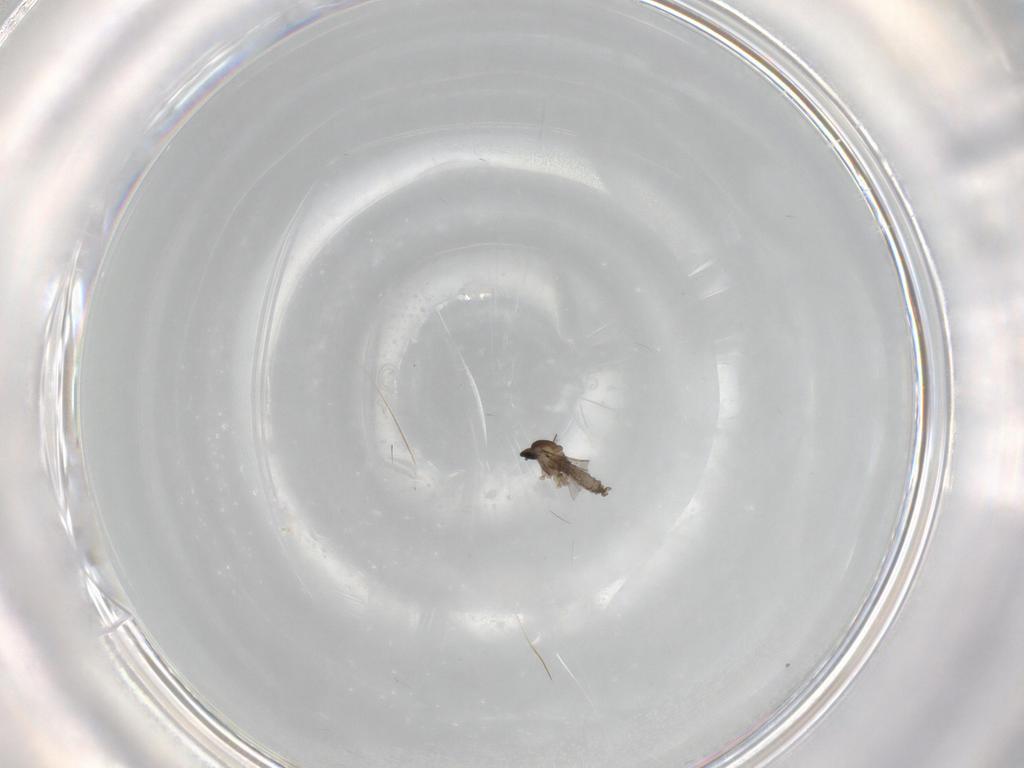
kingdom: Animalia
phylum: Arthropoda
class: Insecta
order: Diptera
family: Scatopsidae
